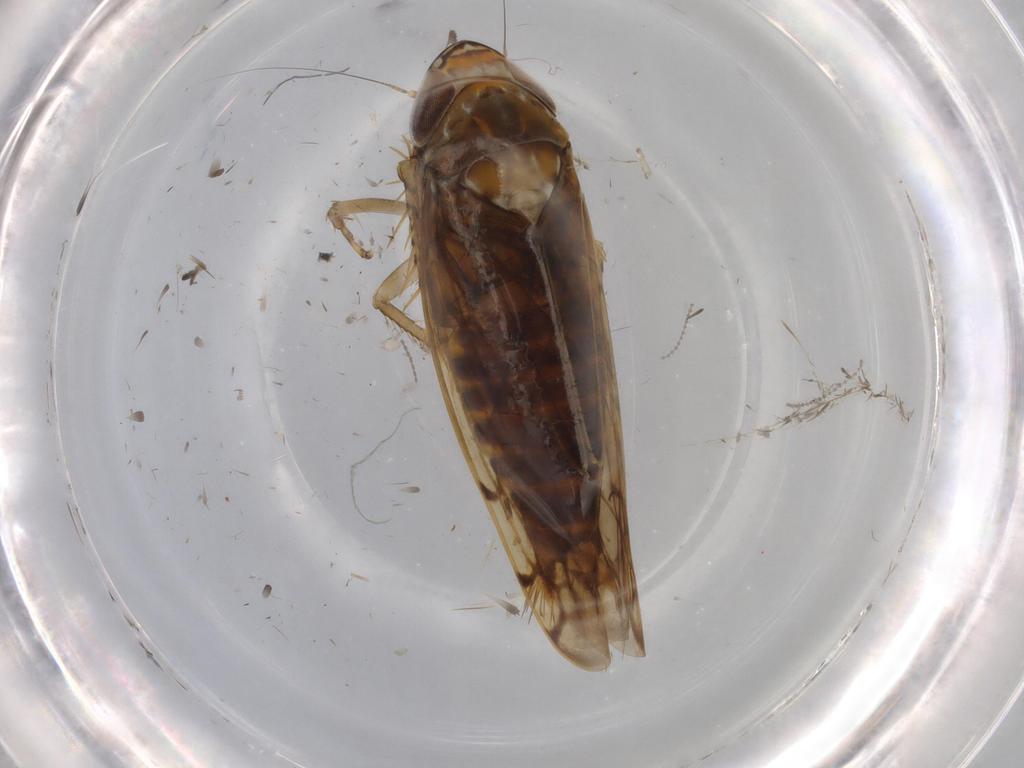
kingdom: Animalia
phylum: Arthropoda
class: Insecta
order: Hemiptera
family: Cicadellidae
